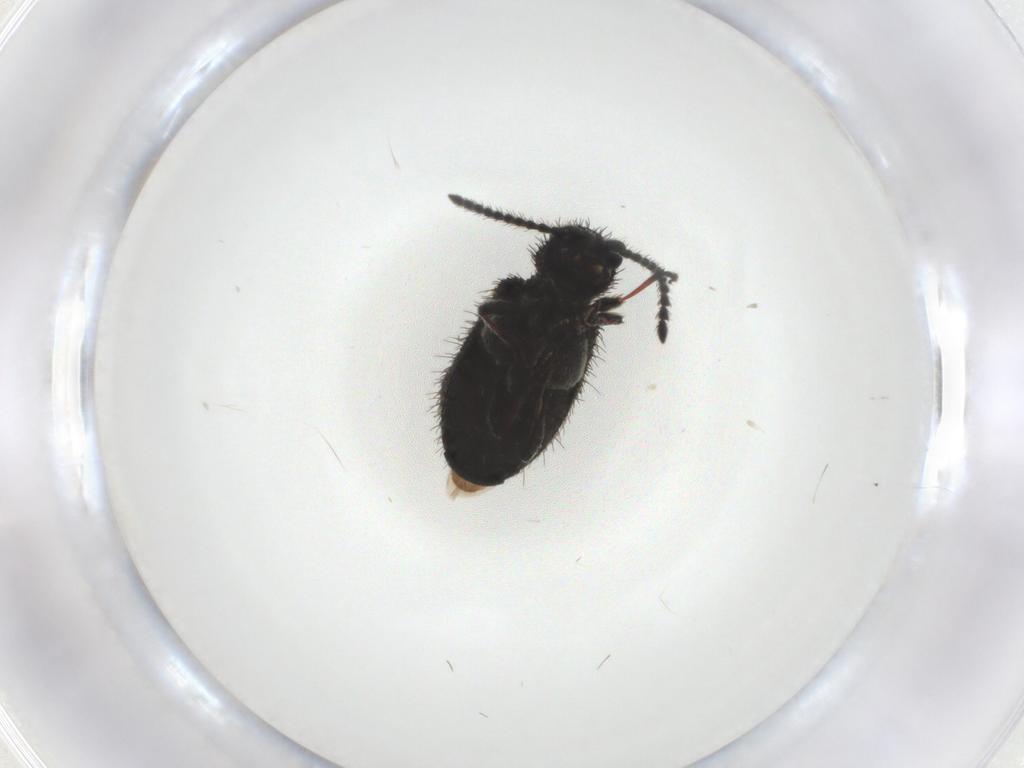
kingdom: Animalia
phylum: Arthropoda
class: Insecta
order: Coleoptera
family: Ptinidae
